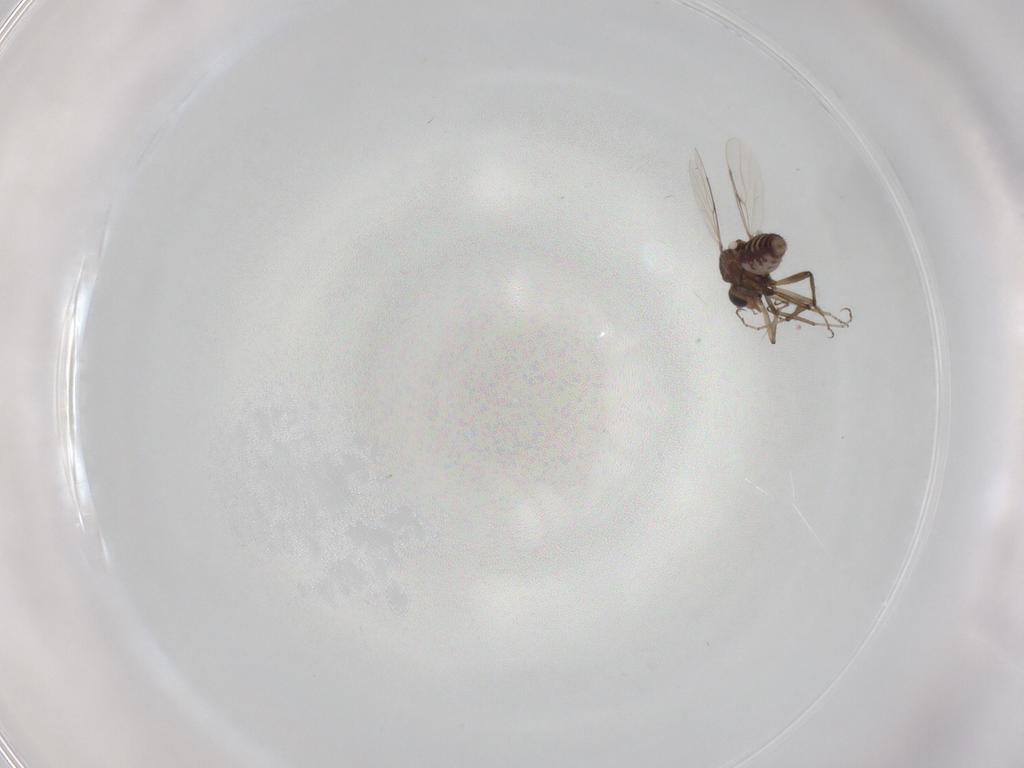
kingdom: Animalia
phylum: Arthropoda
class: Insecta
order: Diptera
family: Ceratopogonidae
